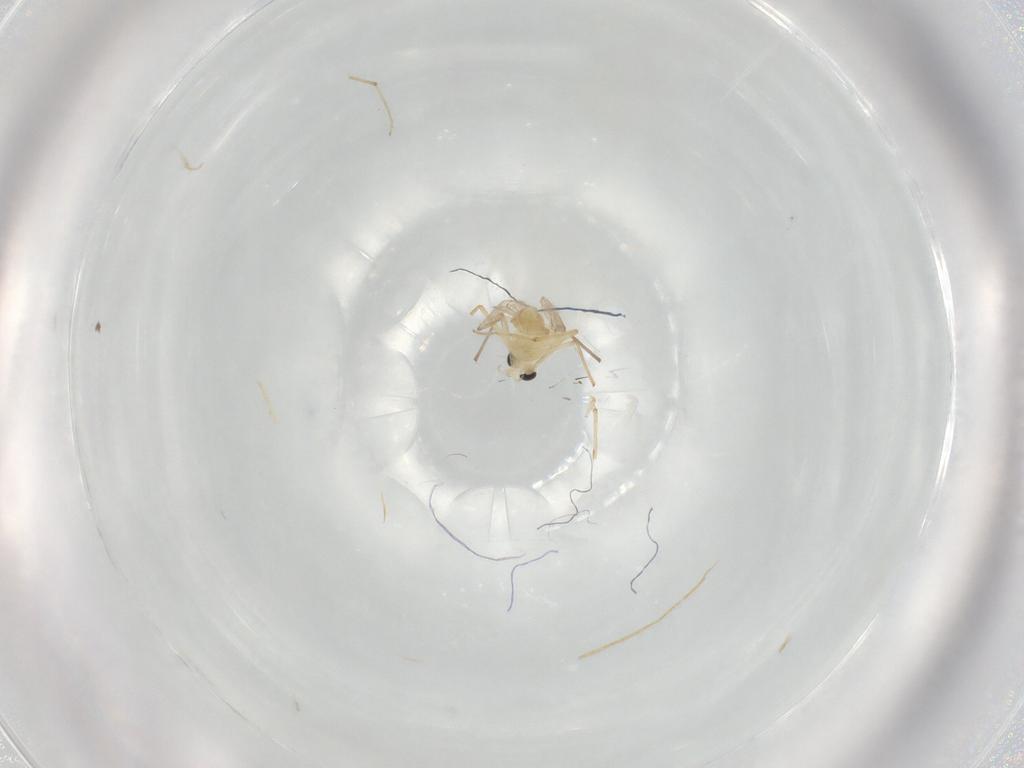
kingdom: Animalia
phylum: Arthropoda
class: Insecta
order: Diptera
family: Chironomidae
